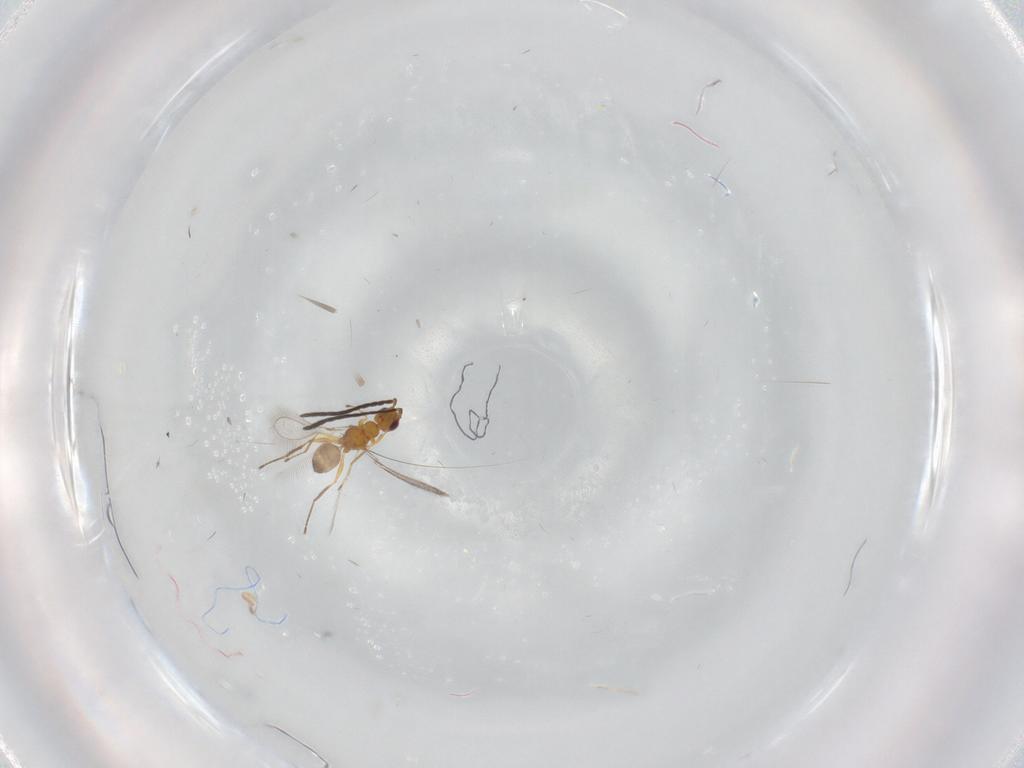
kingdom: Animalia
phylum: Arthropoda
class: Insecta
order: Hymenoptera
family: Mymaridae
